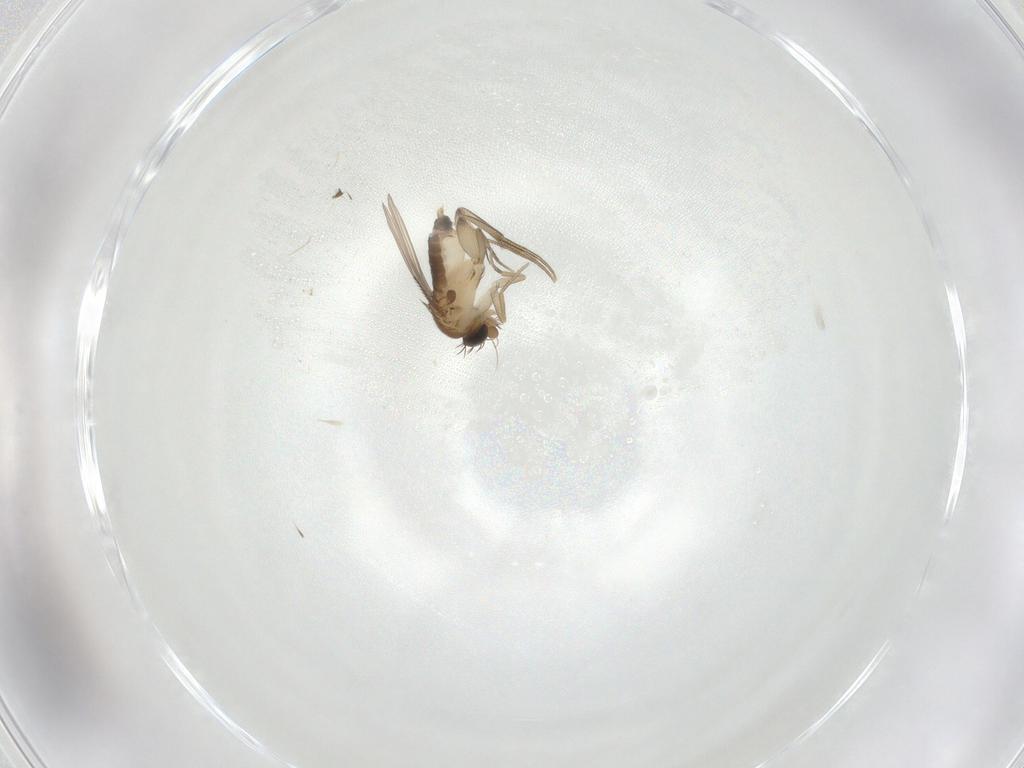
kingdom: Animalia
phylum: Arthropoda
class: Insecta
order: Diptera
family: Phoridae
